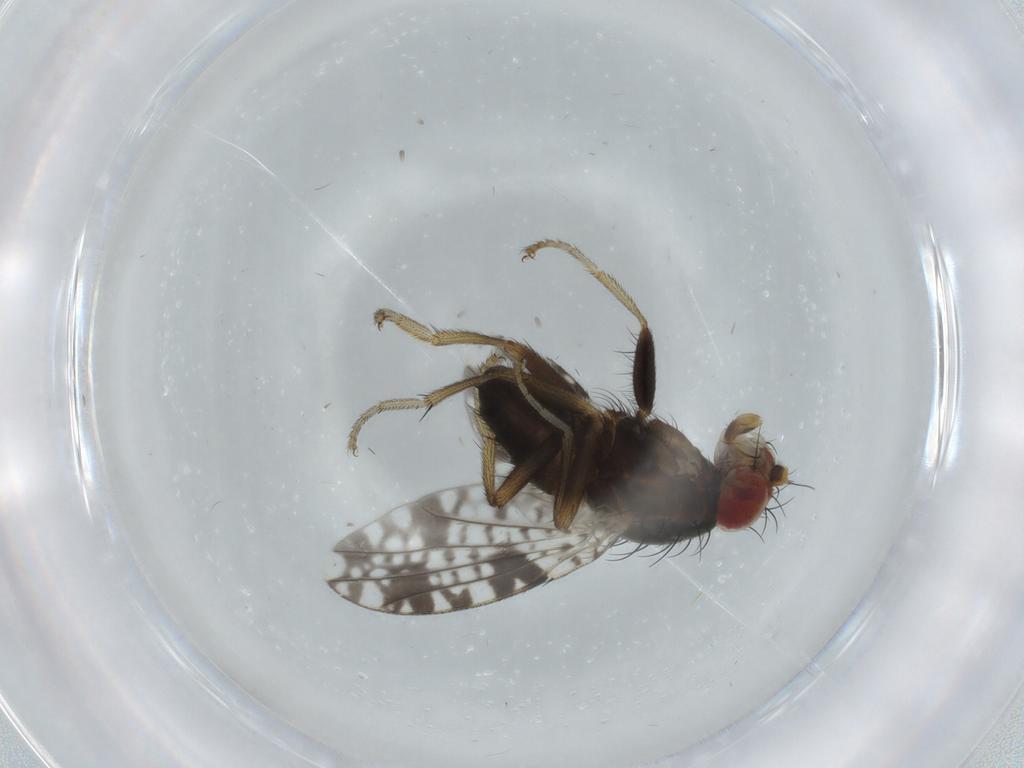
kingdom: Animalia
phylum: Arthropoda
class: Insecta
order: Diptera
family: Tephritidae
